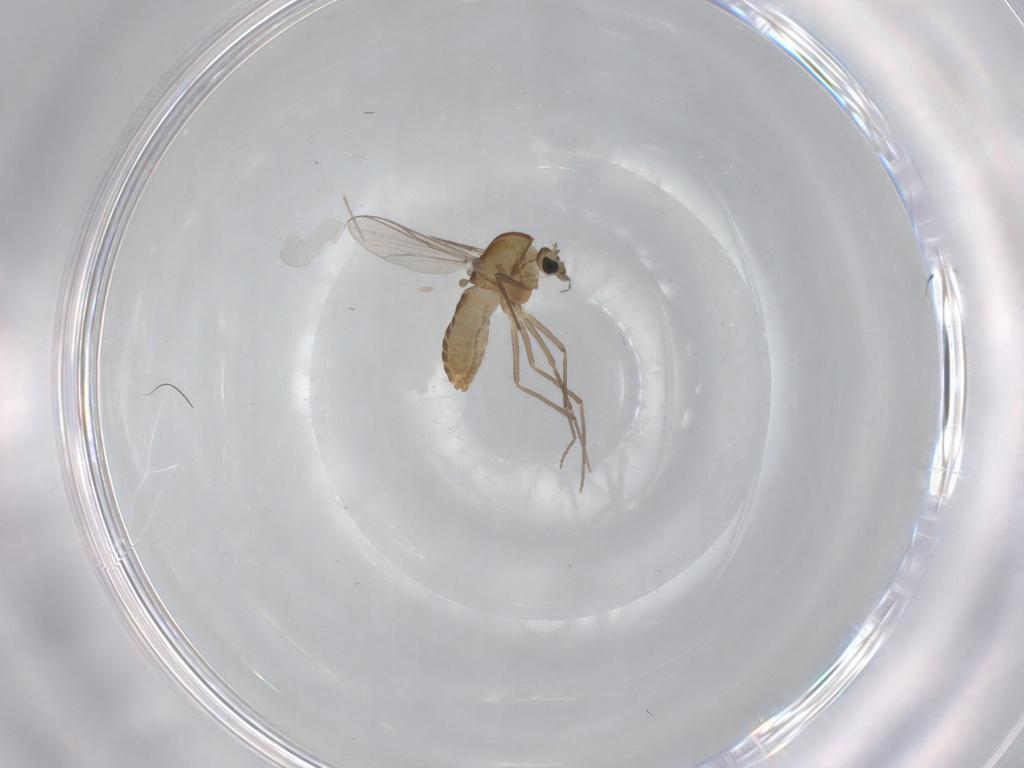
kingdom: Animalia
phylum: Arthropoda
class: Insecta
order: Diptera
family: Chironomidae
